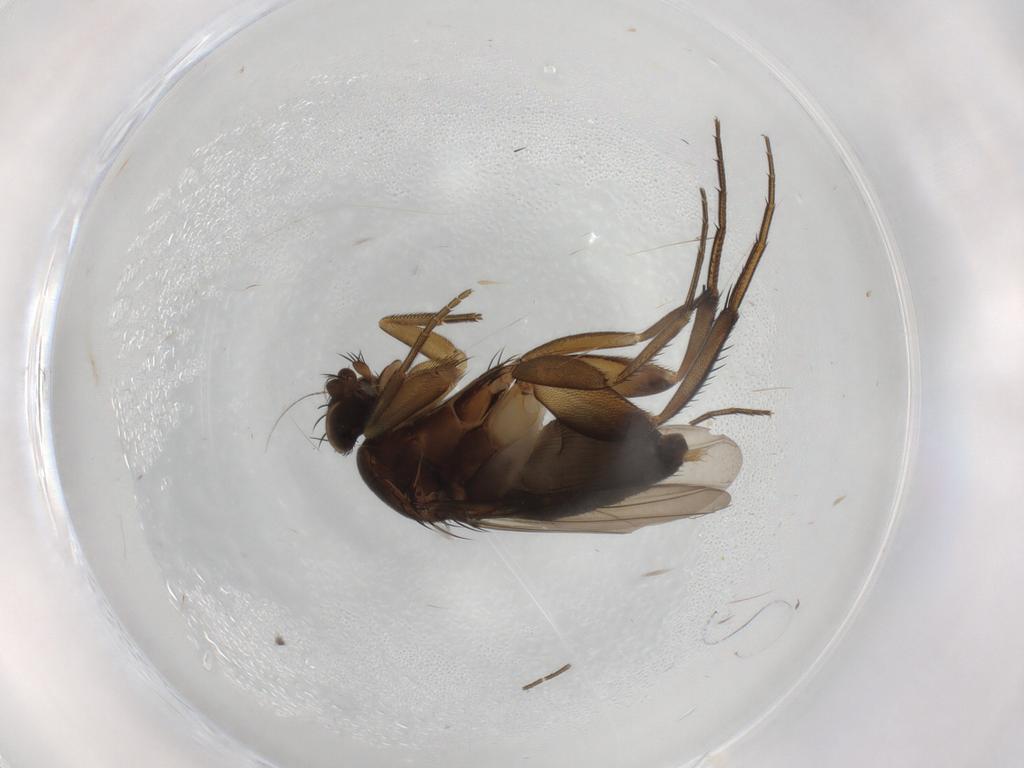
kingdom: Animalia
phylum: Arthropoda
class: Insecta
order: Diptera
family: Phoridae
